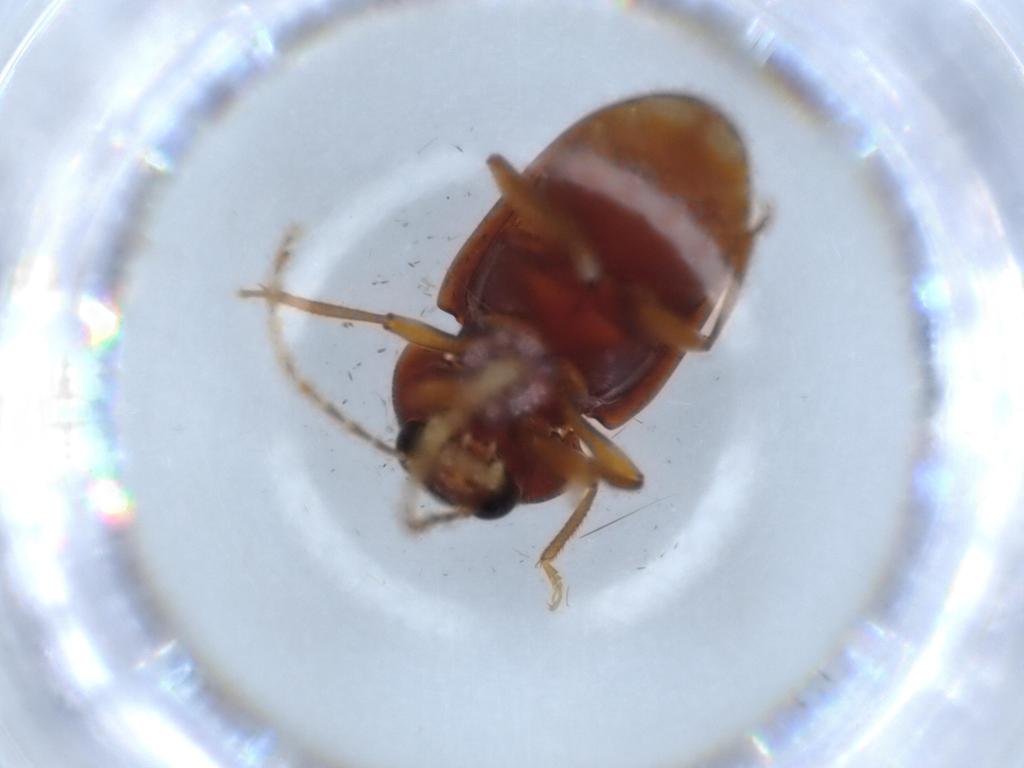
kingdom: Animalia
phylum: Arthropoda
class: Insecta
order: Coleoptera
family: Ptilodactylidae
